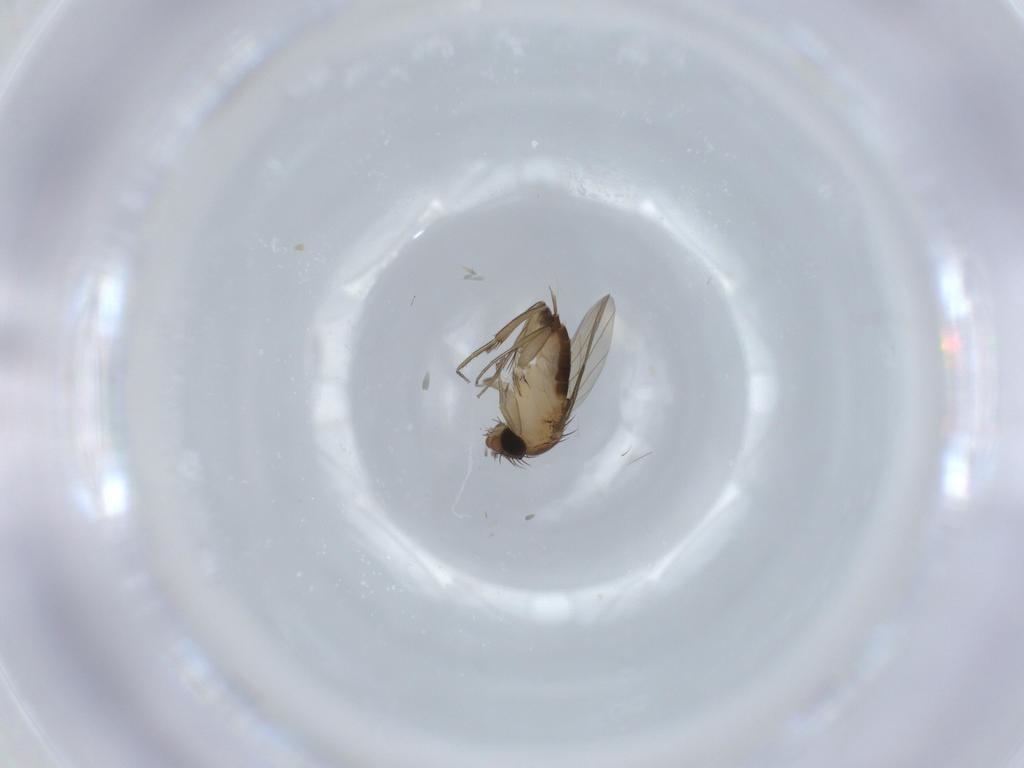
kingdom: Animalia
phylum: Arthropoda
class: Insecta
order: Diptera
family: Phoridae
